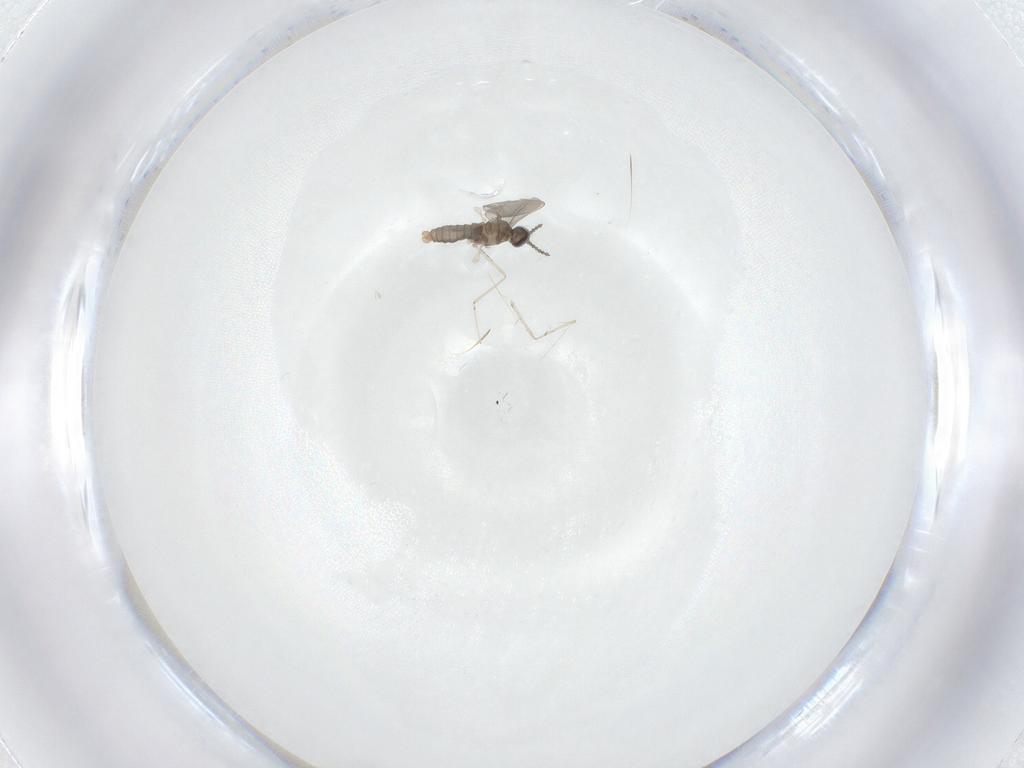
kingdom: Animalia
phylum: Arthropoda
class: Insecta
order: Diptera
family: Cecidomyiidae
